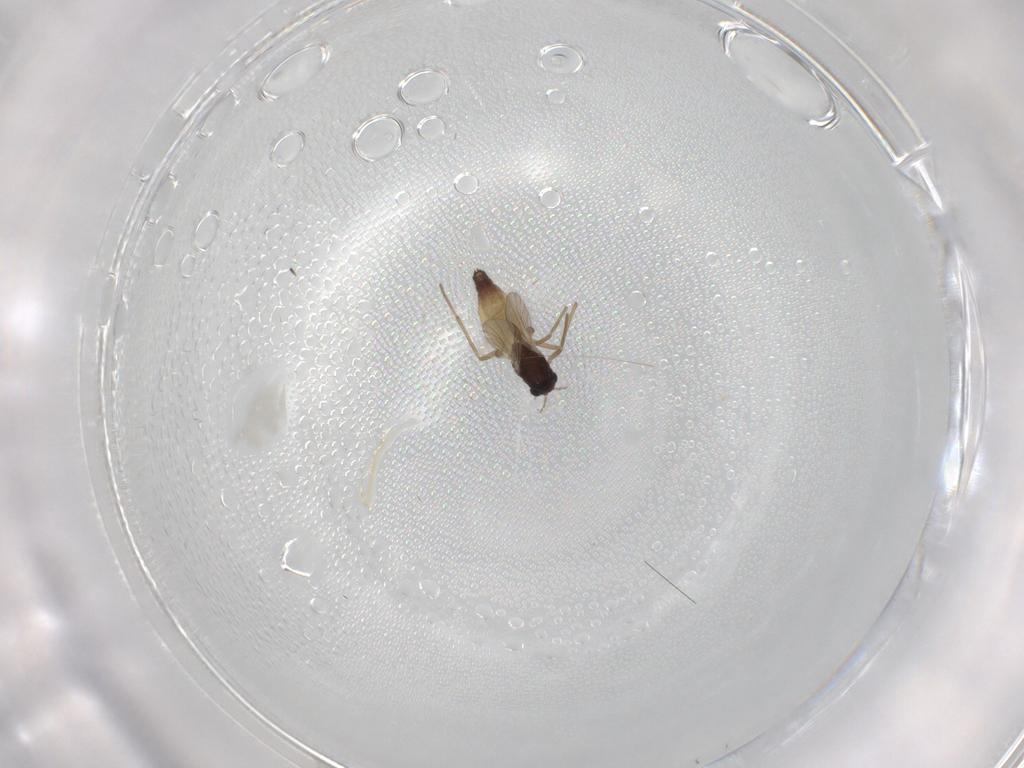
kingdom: Animalia
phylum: Arthropoda
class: Insecta
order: Diptera
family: Chironomidae
